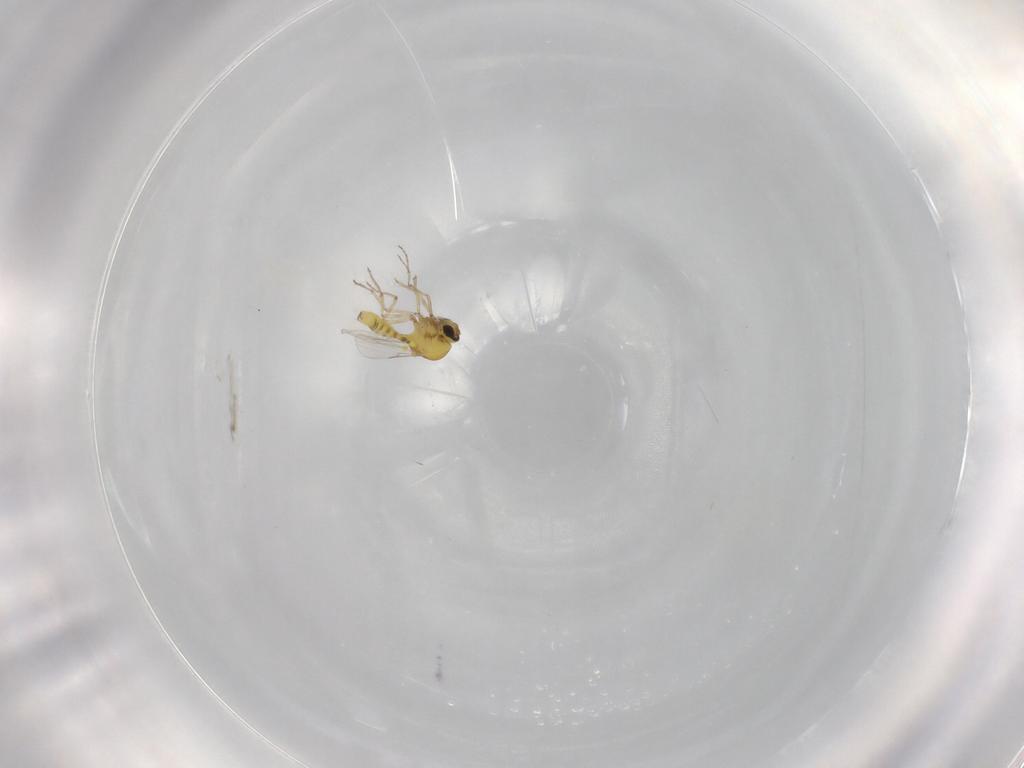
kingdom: Animalia
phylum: Arthropoda
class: Insecta
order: Diptera
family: Ceratopogonidae
